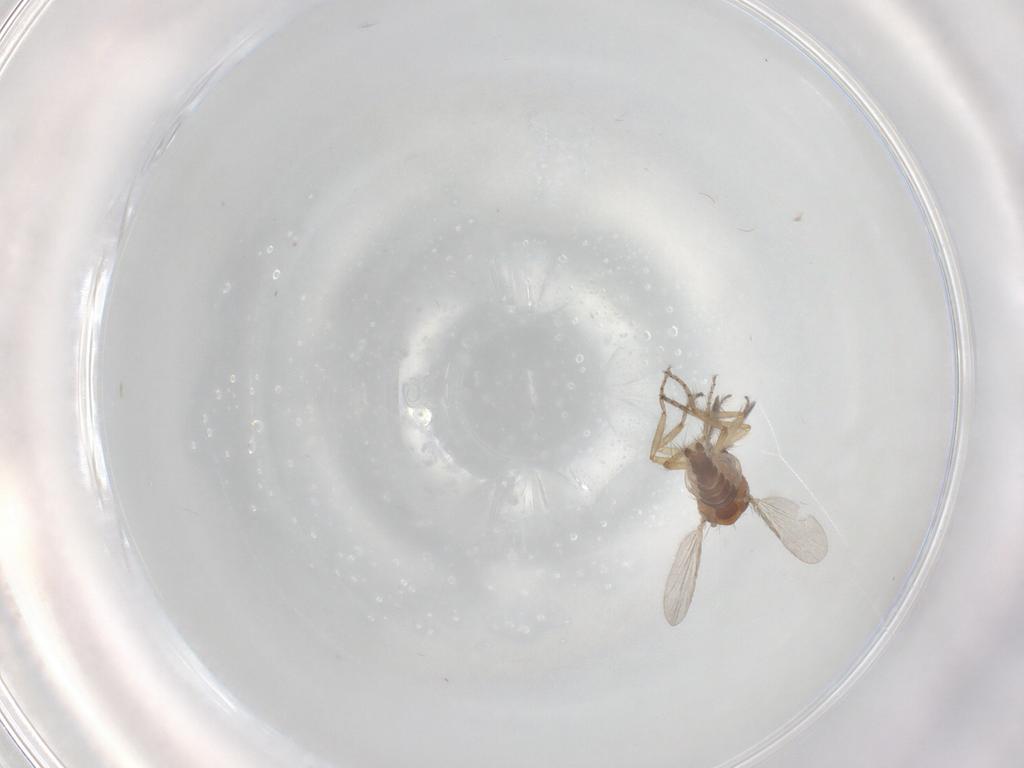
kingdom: Animalia
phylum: Arthropoda
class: Insecta
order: Diptera
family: Ceratopogonidae
